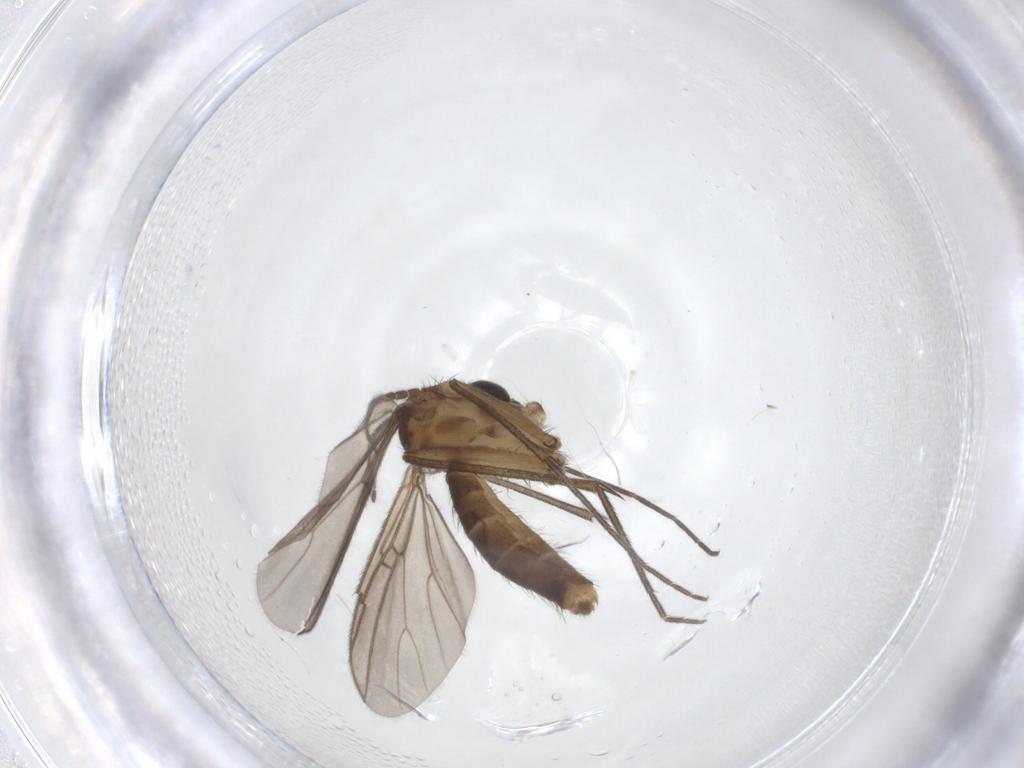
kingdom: Animalia
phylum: Arthropoda
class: Insecta
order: Diptera
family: Mycetophilidae
